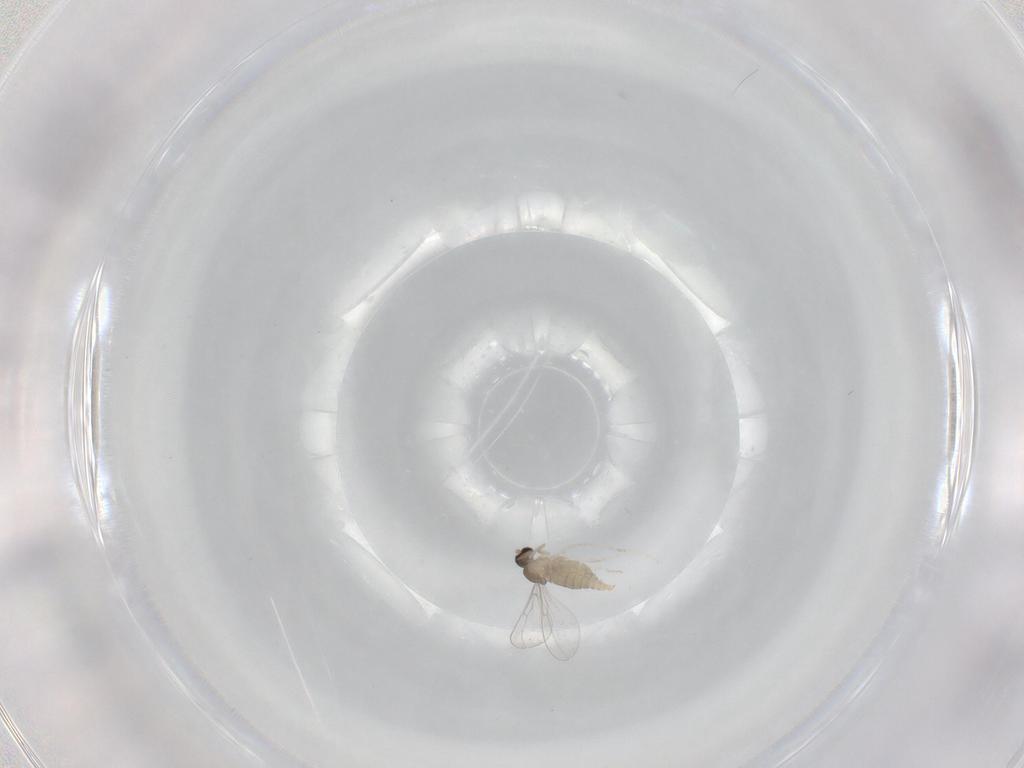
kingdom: Animalia
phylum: Arthropoda
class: Insecta
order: Diptera
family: Cecidomyiidae
